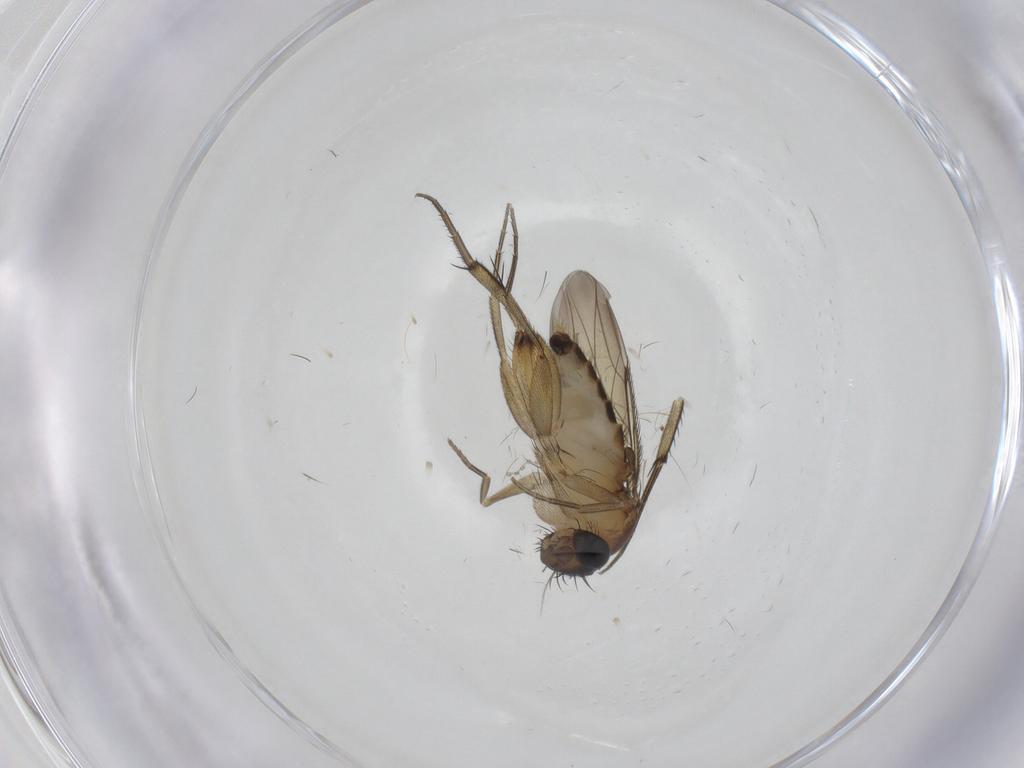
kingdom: Animalia
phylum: Arthropoda
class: Insecta
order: Diptera
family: Phoridae
